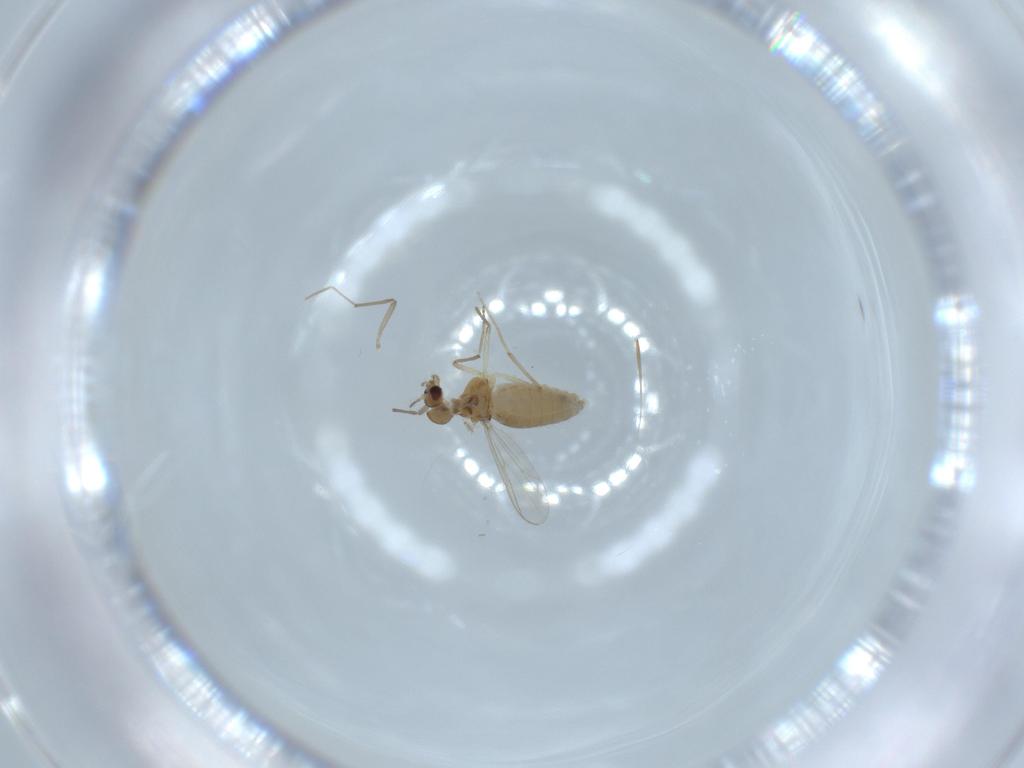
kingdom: Animalia
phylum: Arthropoda
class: Insecta
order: Diptera
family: Chironomidae
